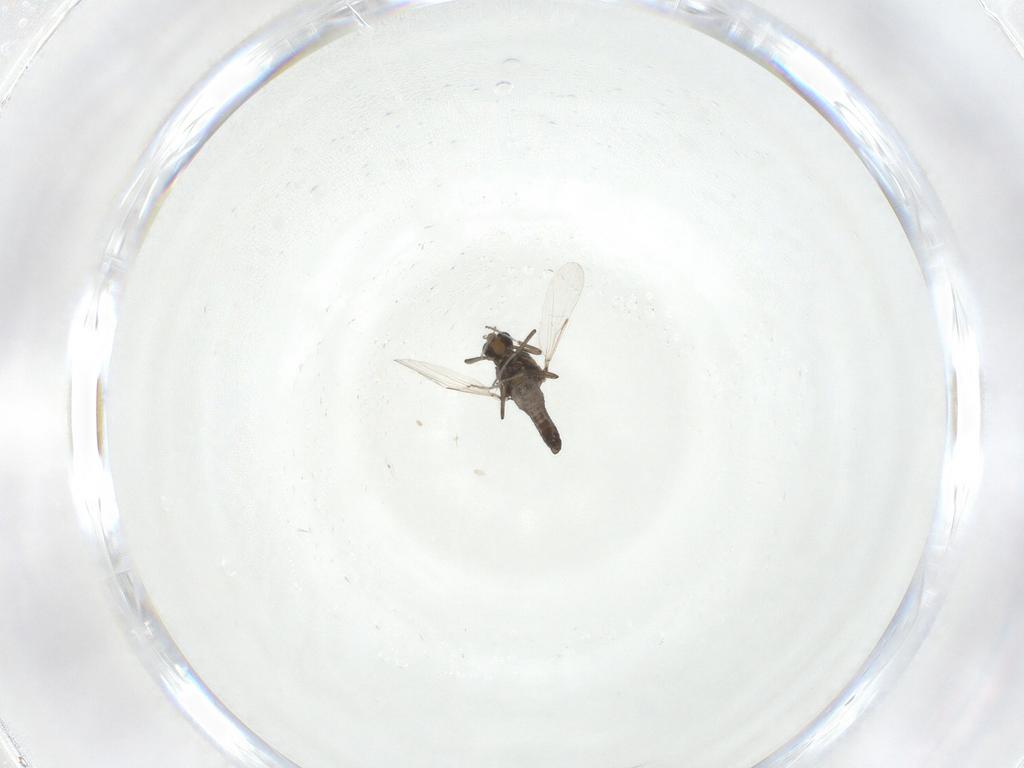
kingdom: Animalia
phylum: Arthropoda
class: Insecta
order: Diptera
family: Ceratopogonidae
